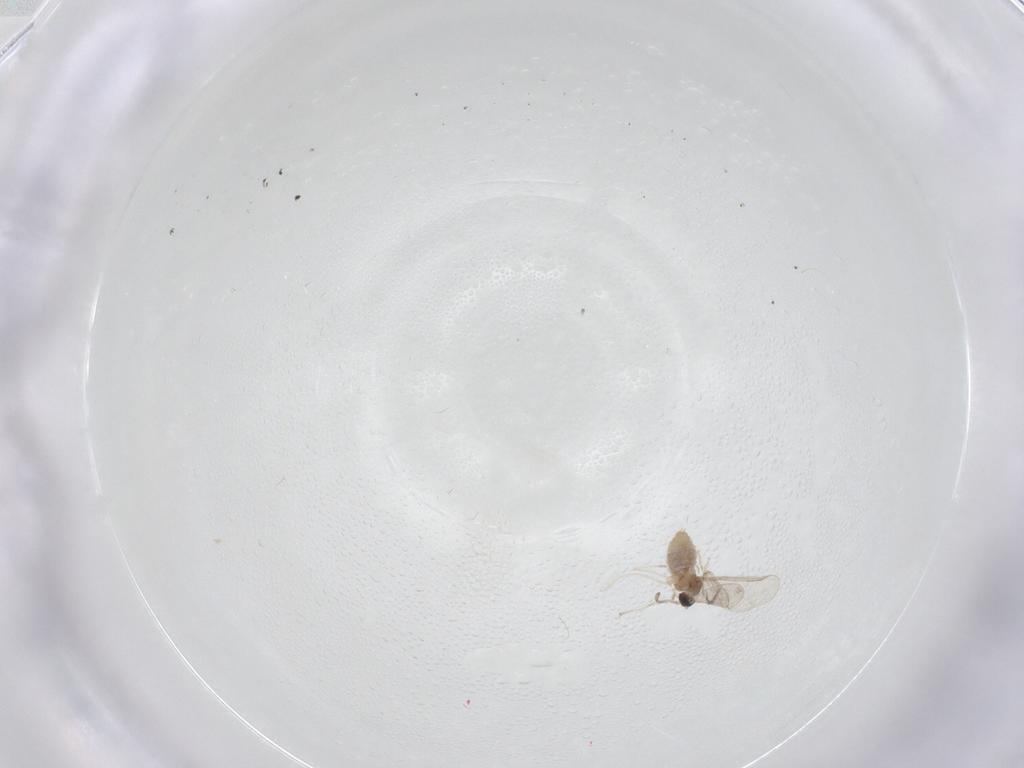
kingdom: Animalia
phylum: Arthropoda
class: Insecta
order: Diptera
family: Cecidomyiidae
